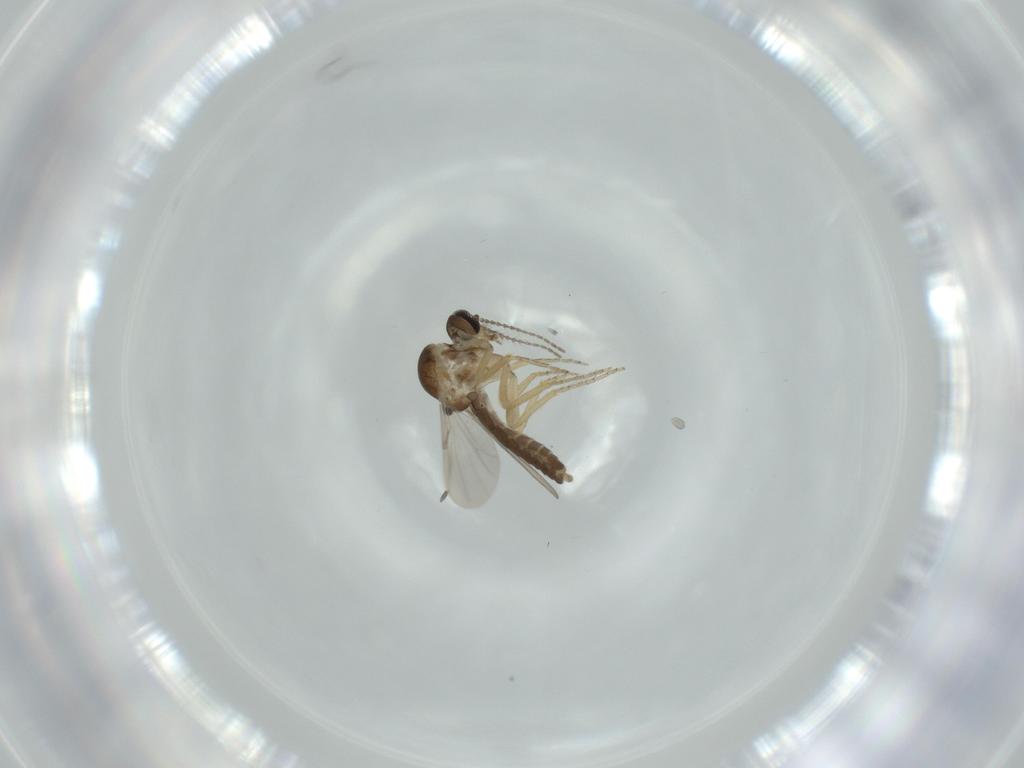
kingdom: Animalia
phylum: Arthropoda
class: Insecta
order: Diptera
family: Ceratopogonidae
